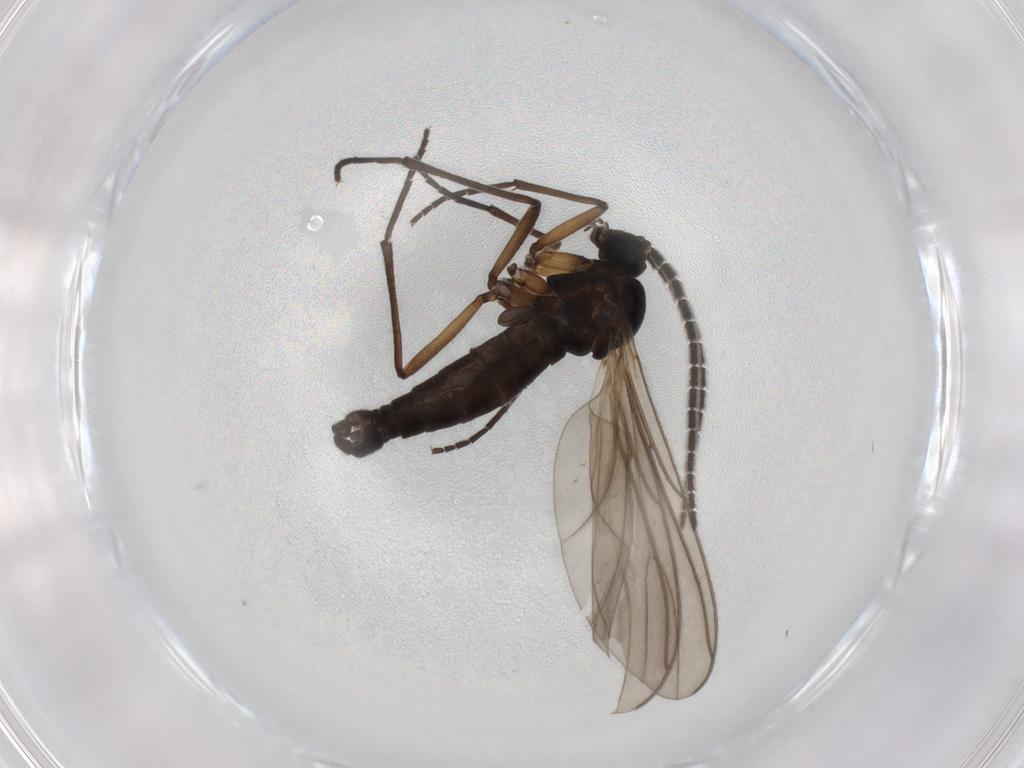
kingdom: Animalia
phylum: Arthropoda
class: Insecta
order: Diptera
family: Sciaridae
